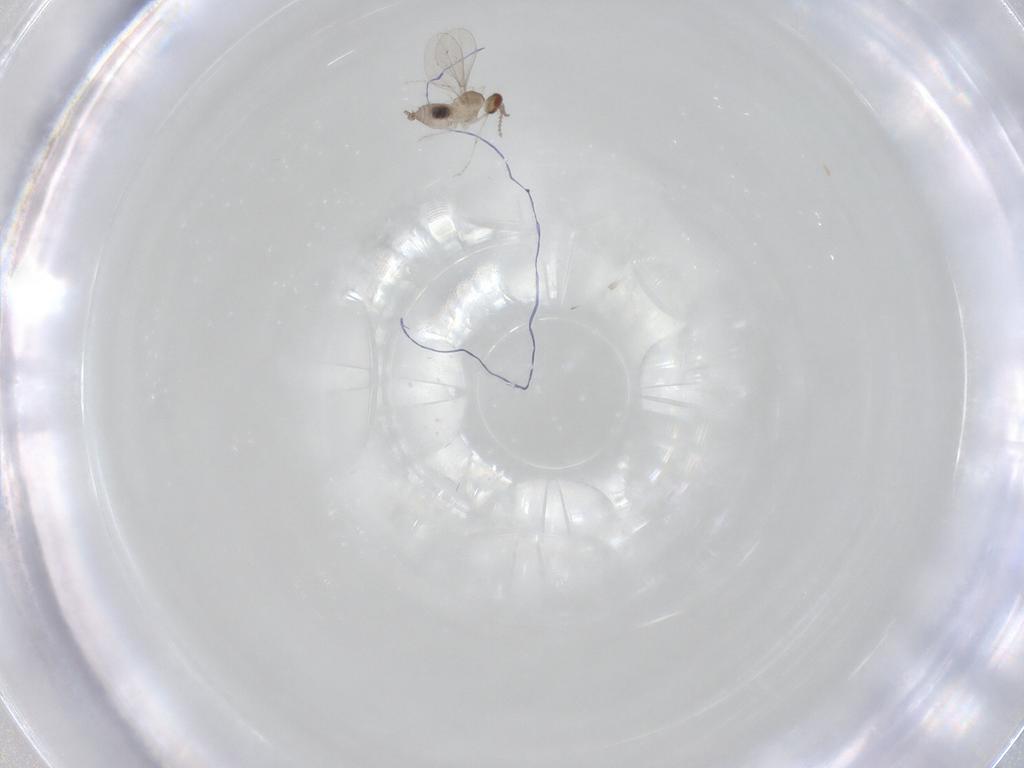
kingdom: Animalia
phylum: Arthropoda
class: Insecta
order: Diptera
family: Cecidomyiidae
